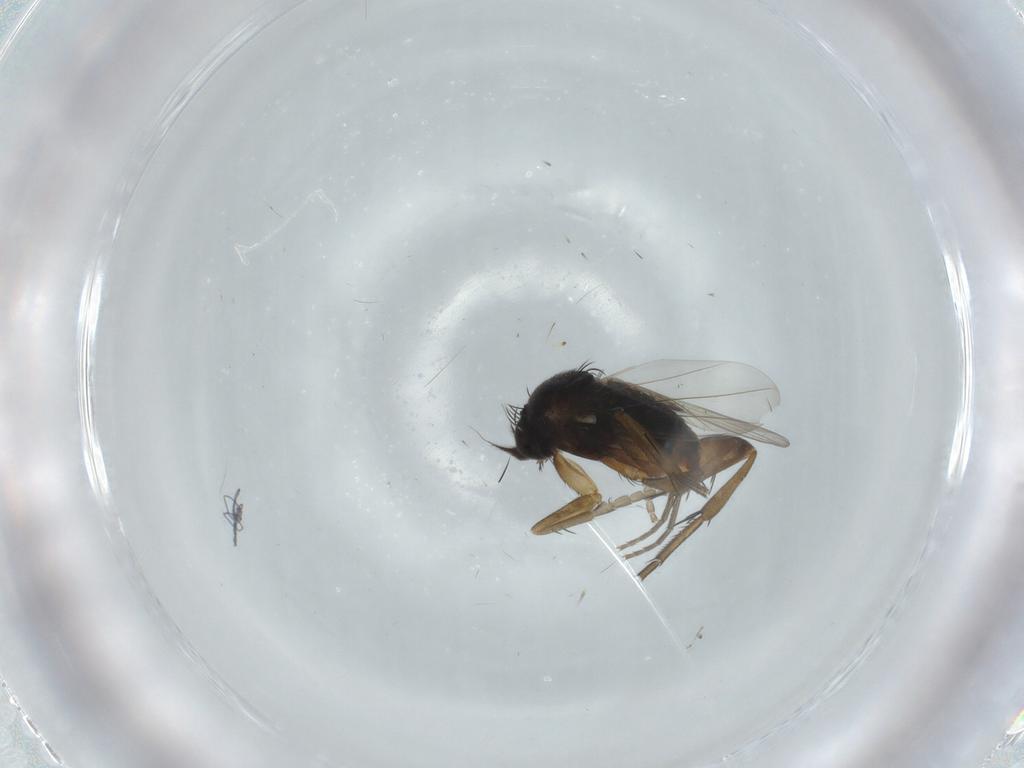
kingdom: Animalia
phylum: Arthropoda
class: Insecta
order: Diptera
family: Phoridae
